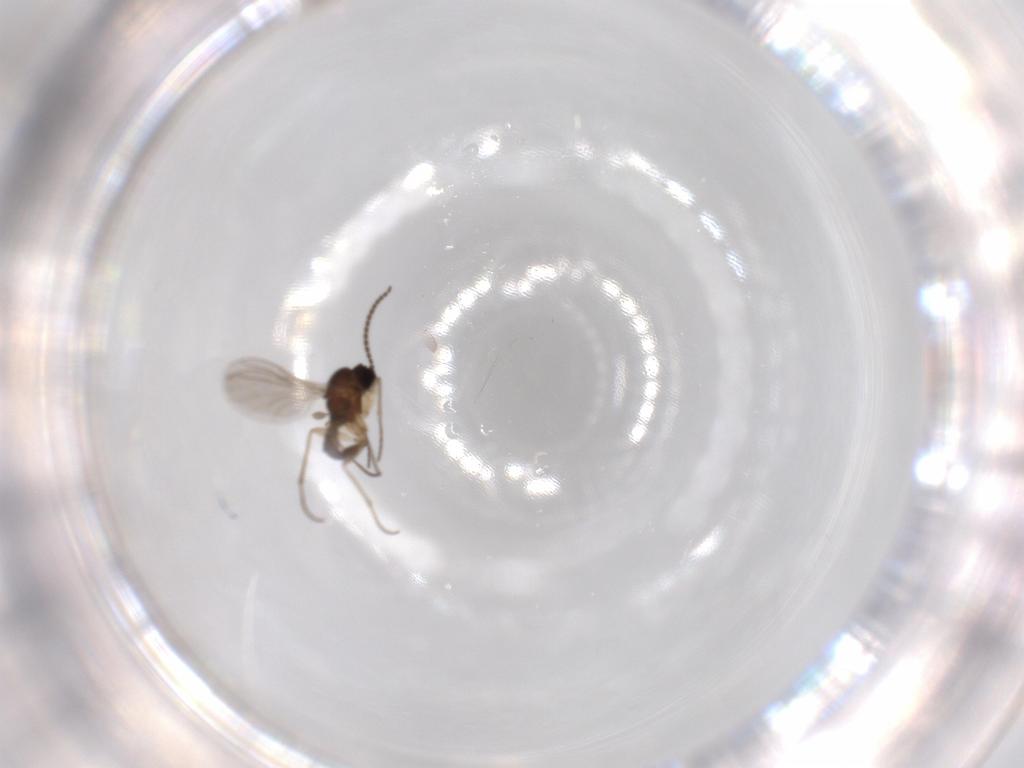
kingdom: Animalia
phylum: Arthropoda
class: Insecta
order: Diptera
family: Sciaridae
